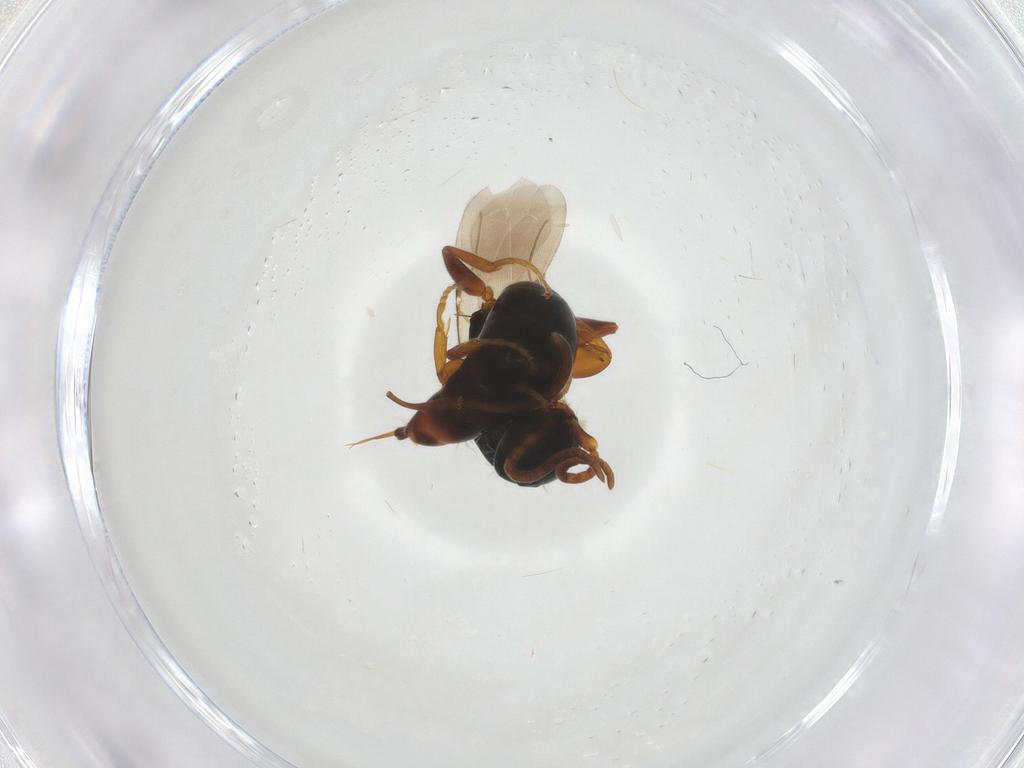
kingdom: Animalia
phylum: Arthropoda
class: Insecta
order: Hymenoptera
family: Bethylidae
